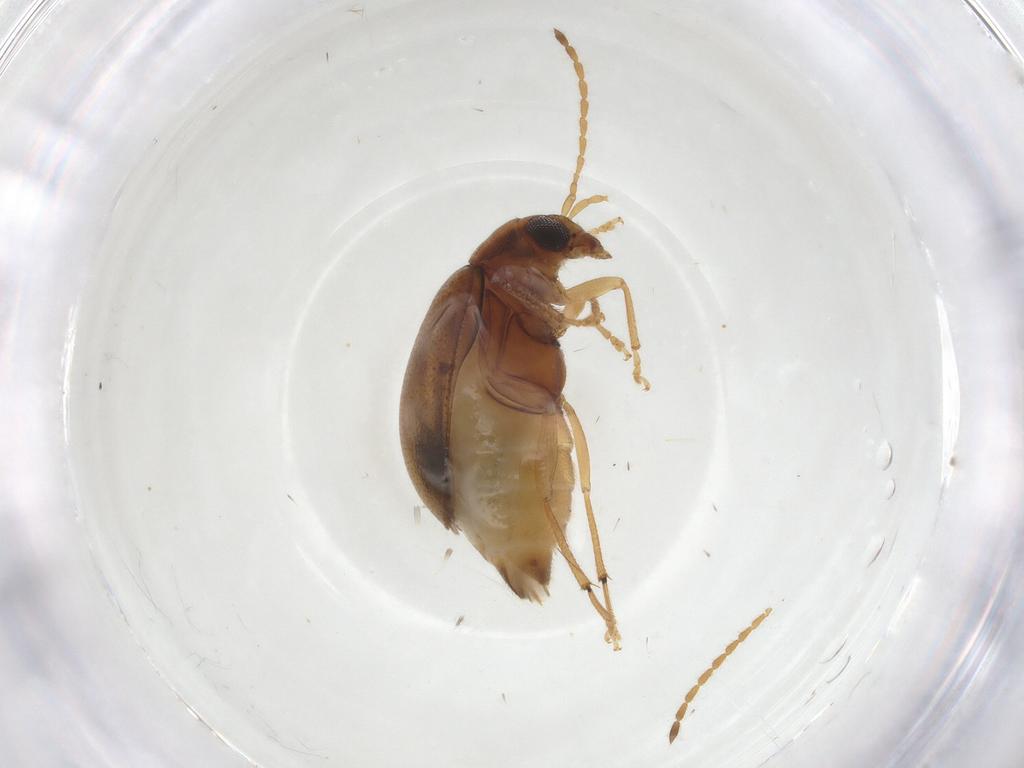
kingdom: Animalia
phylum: Arthropoda
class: Insecta
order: Coleoptera
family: Chrysomelidae
